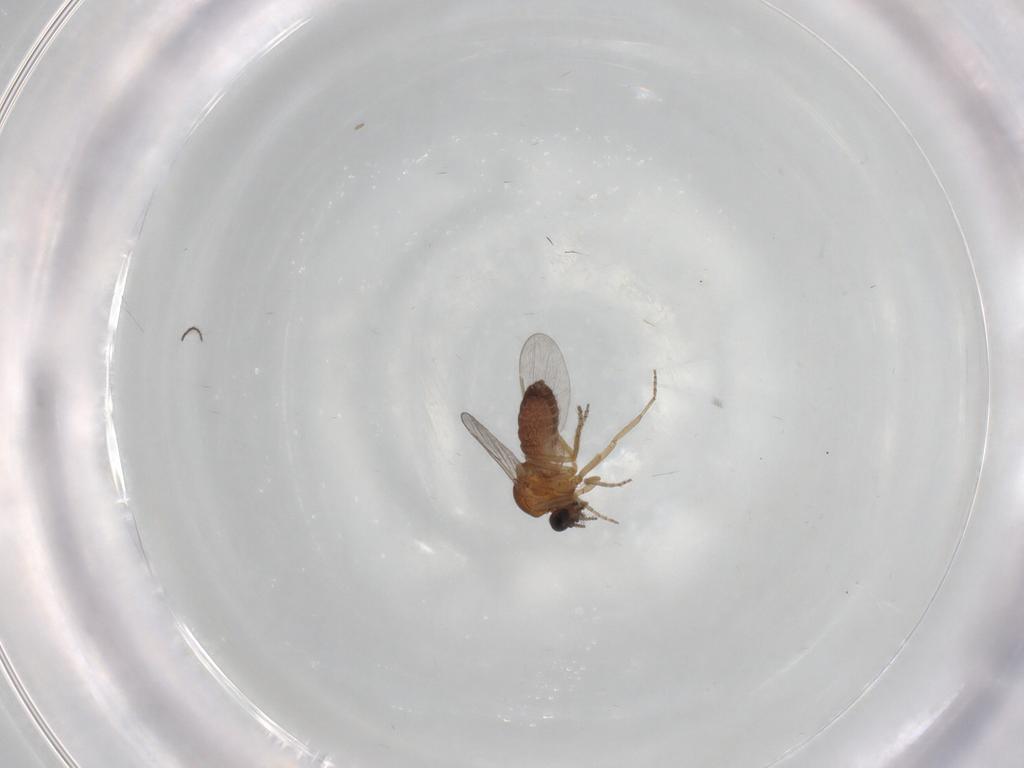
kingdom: Animalia
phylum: Arthropoda
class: Insecta
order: Diptera
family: Ceratopogonidae
